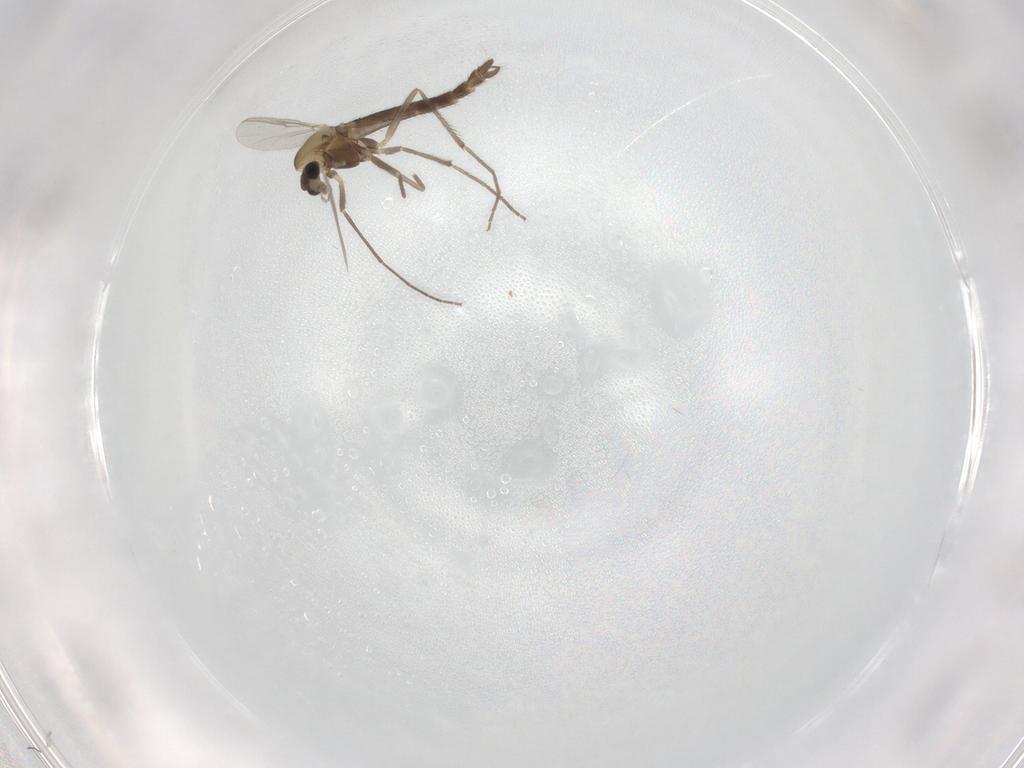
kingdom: Animalia
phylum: Arthropoda
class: Insecta
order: Diptera
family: Chironomidae
